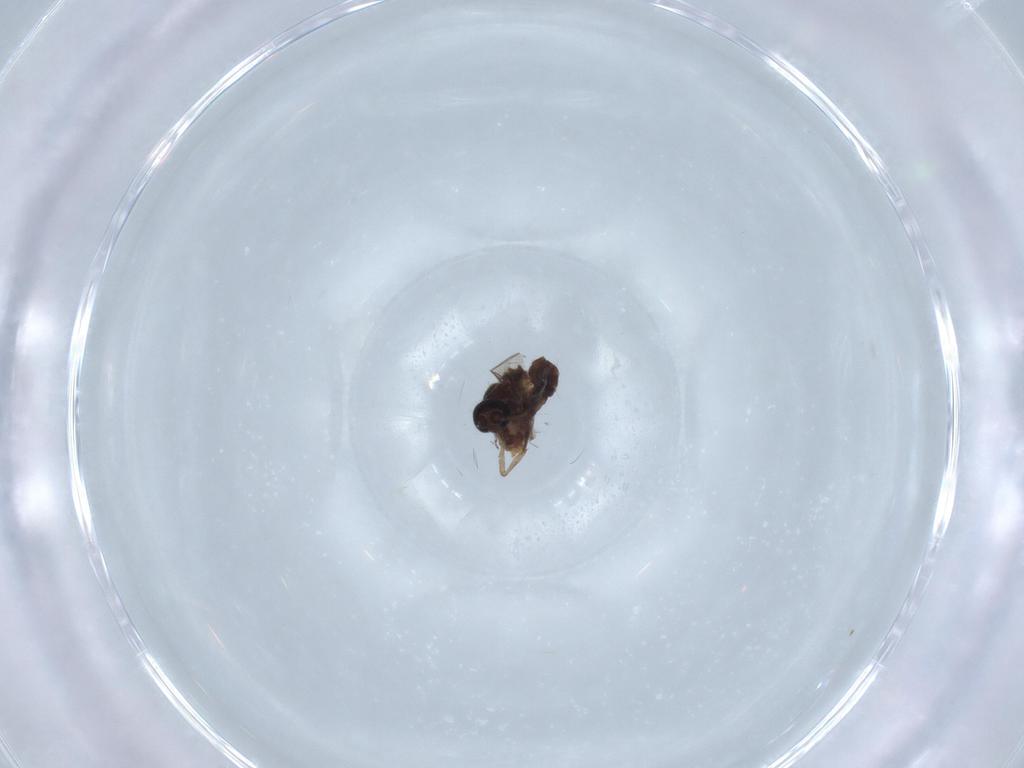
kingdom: Animalia
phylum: Arthropoda
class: Insecta
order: Diptera
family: Ceratopogonidae
